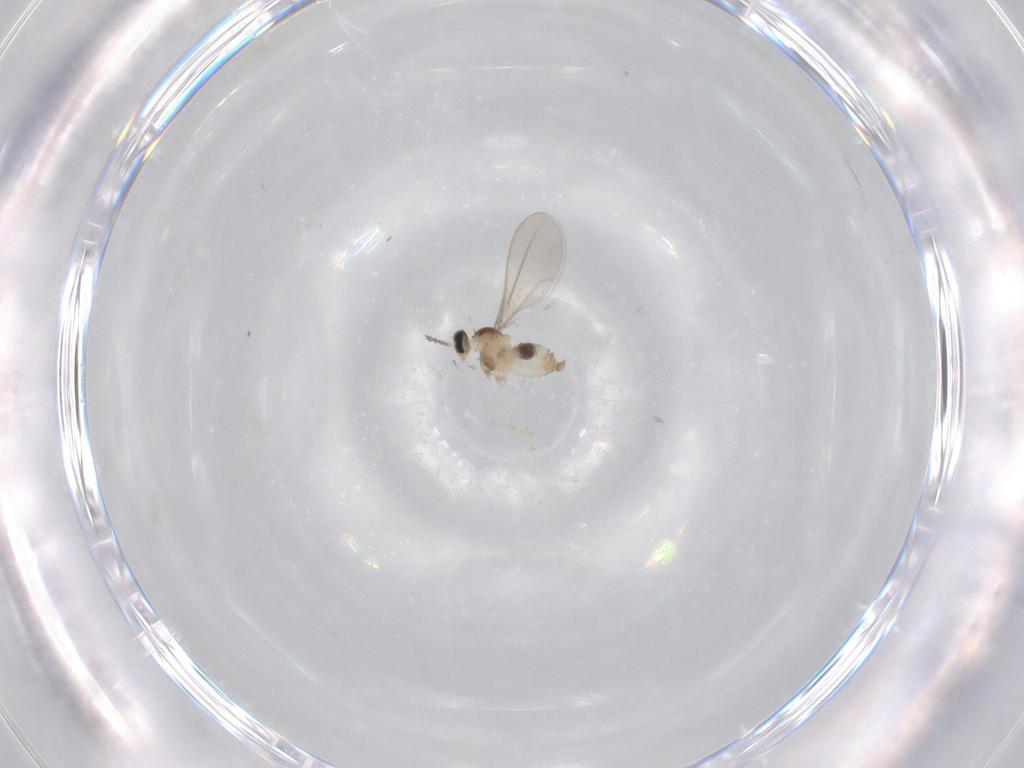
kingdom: Animalia
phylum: Arthropoda
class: Insecta
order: Diptera
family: Cecidomyiidae
